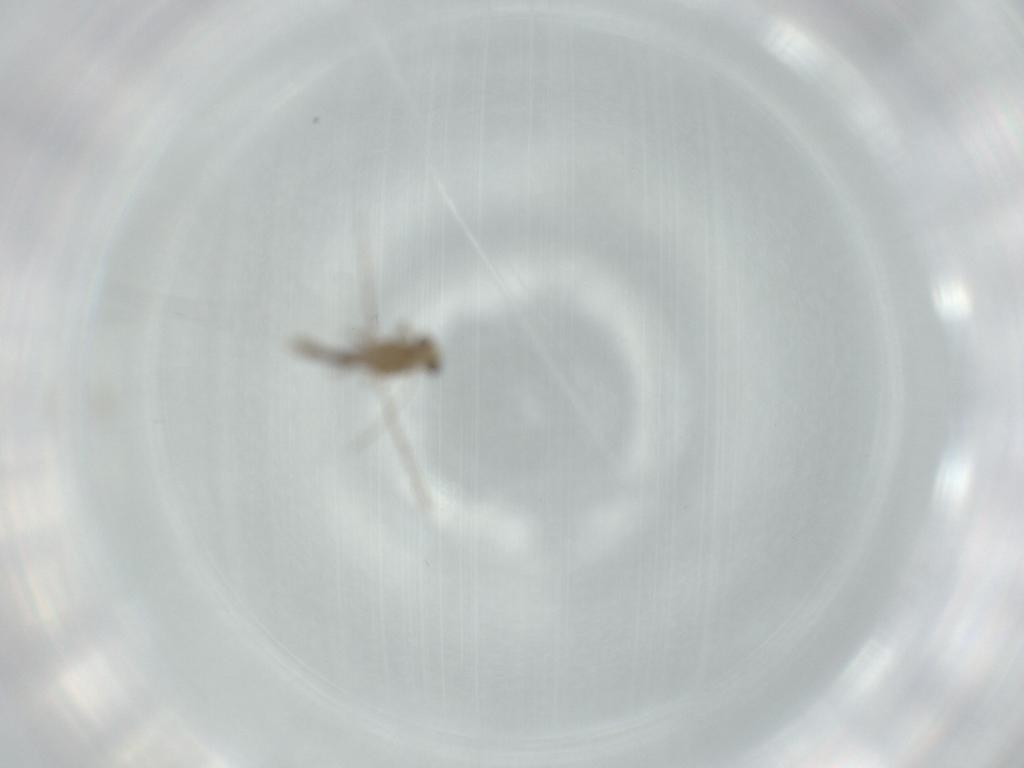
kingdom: Animalia
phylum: Arthropoda
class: Insecta
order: Diptera
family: Chironomidae
